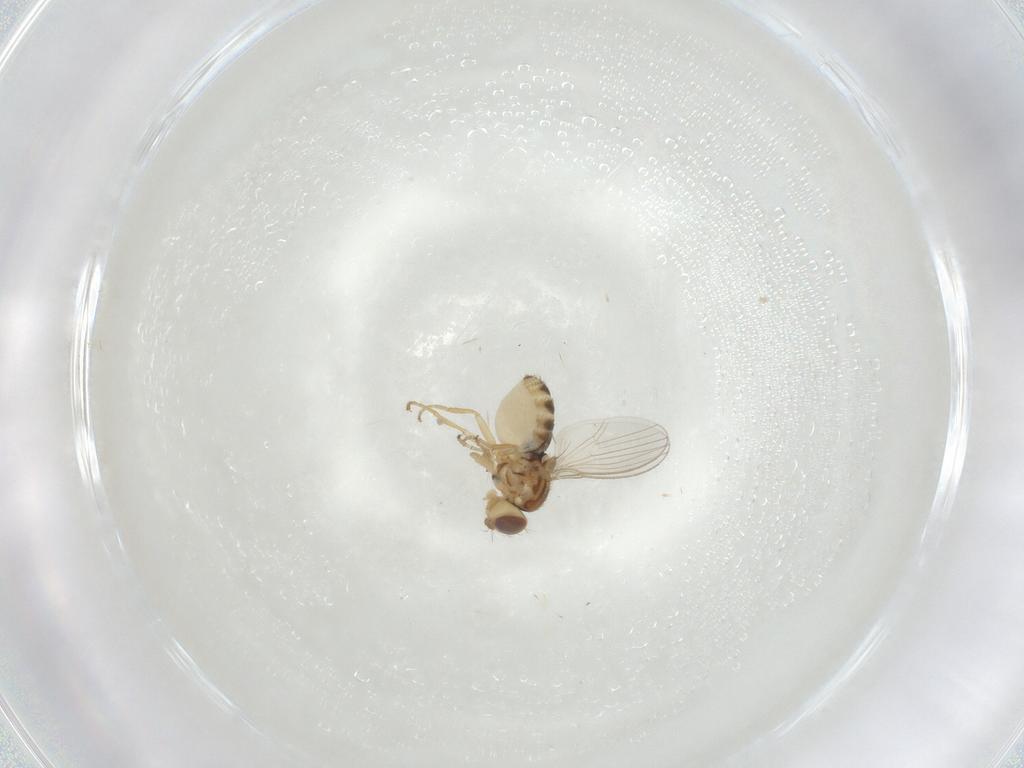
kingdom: Animalia
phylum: Arthropoda
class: Insecta
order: Diptera
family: Chyromyidae
